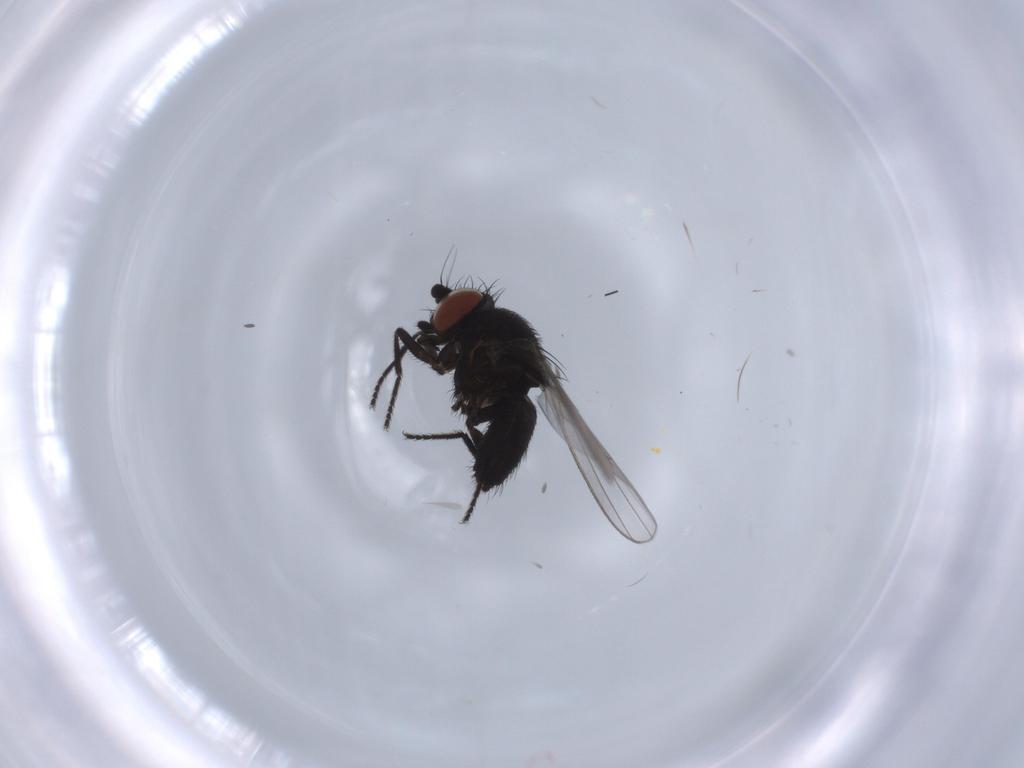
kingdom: Animalia
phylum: Arthropoda
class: Insecta
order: Diptera
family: Milichiidae
